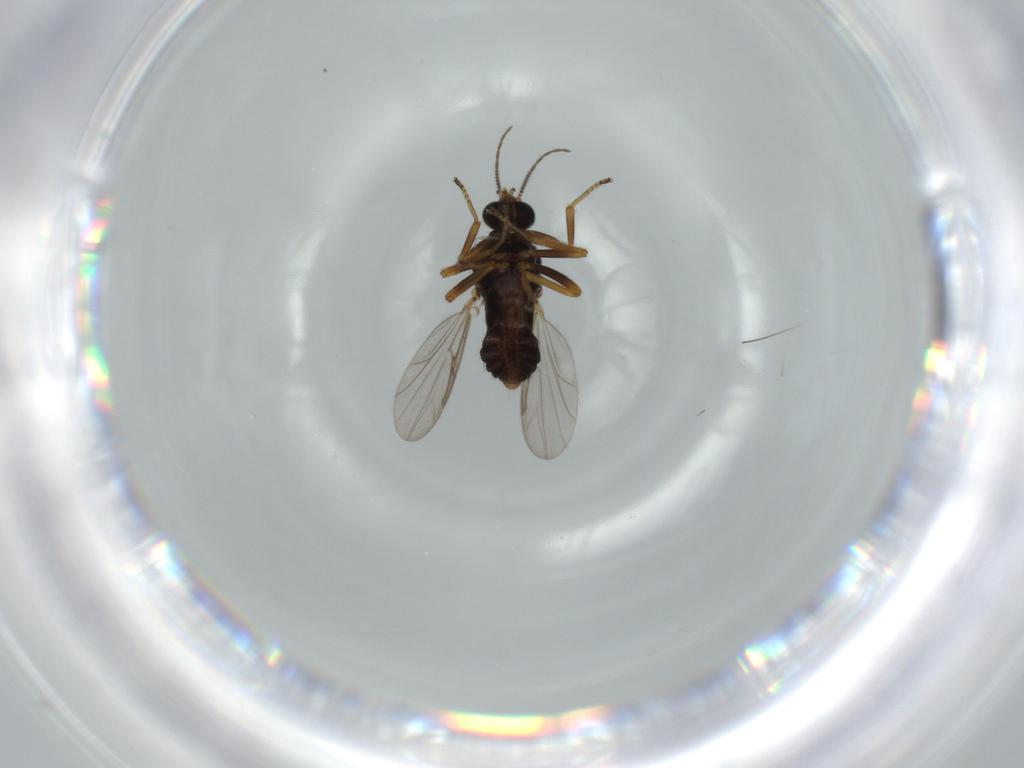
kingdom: Animalia
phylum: Arthropoda
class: Insecta
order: Diptera
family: Ceratopogonidae
